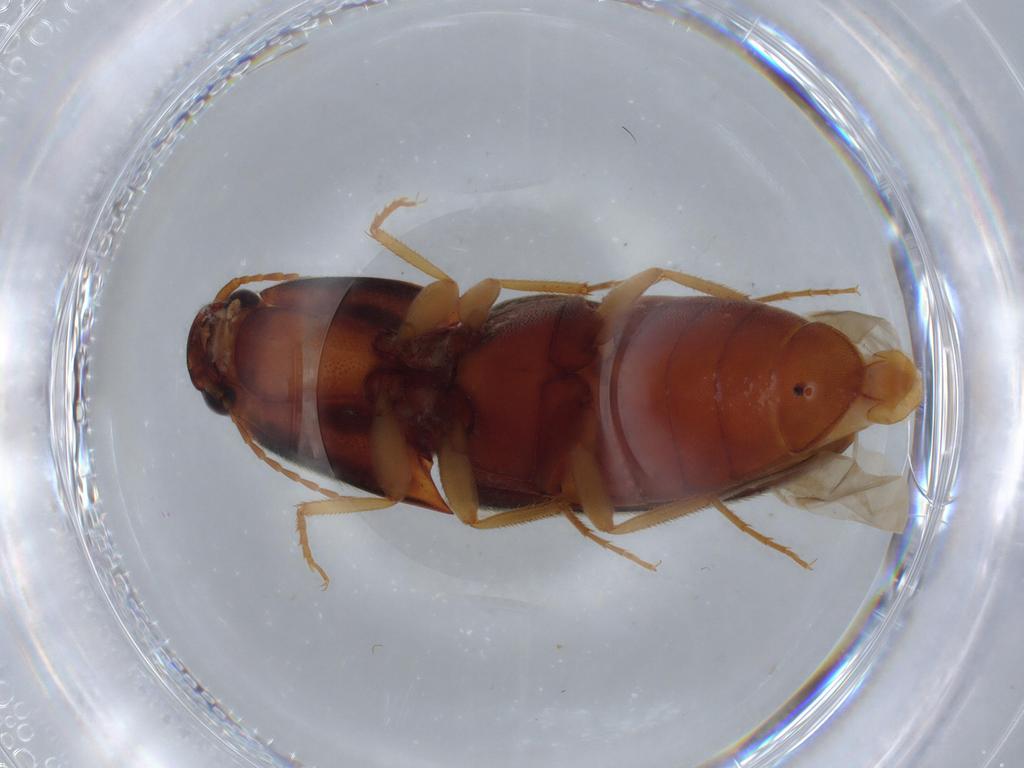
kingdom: Animalia
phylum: Arthropoda
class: Insecta
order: Coleoptera
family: Elateridae
